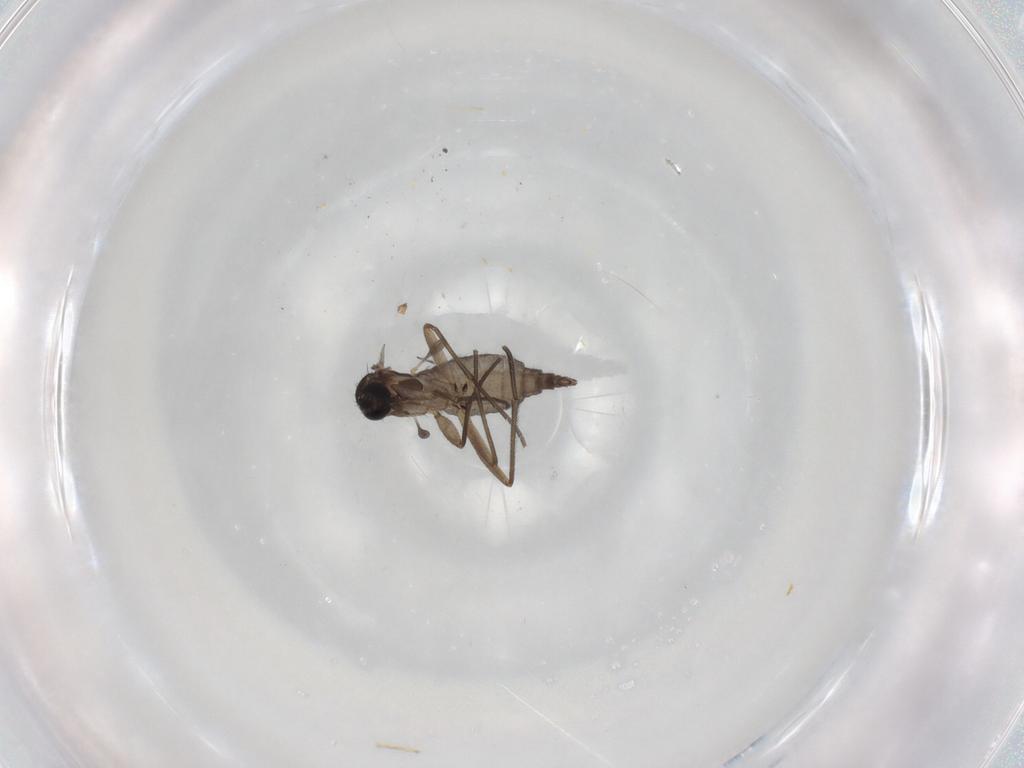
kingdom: Animalia
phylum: Arthropoda
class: Insecta
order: Diptera
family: Sciaridae
